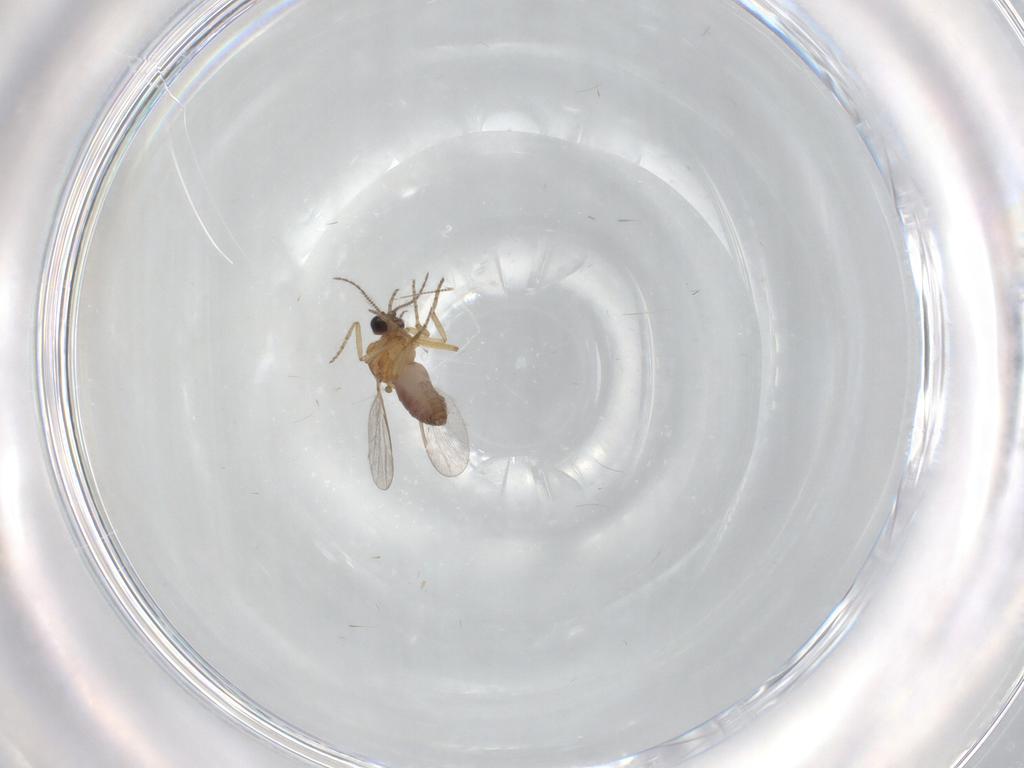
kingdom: Animalia
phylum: Arthropoda
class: Insecta
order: Diptera
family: Chironomidae
